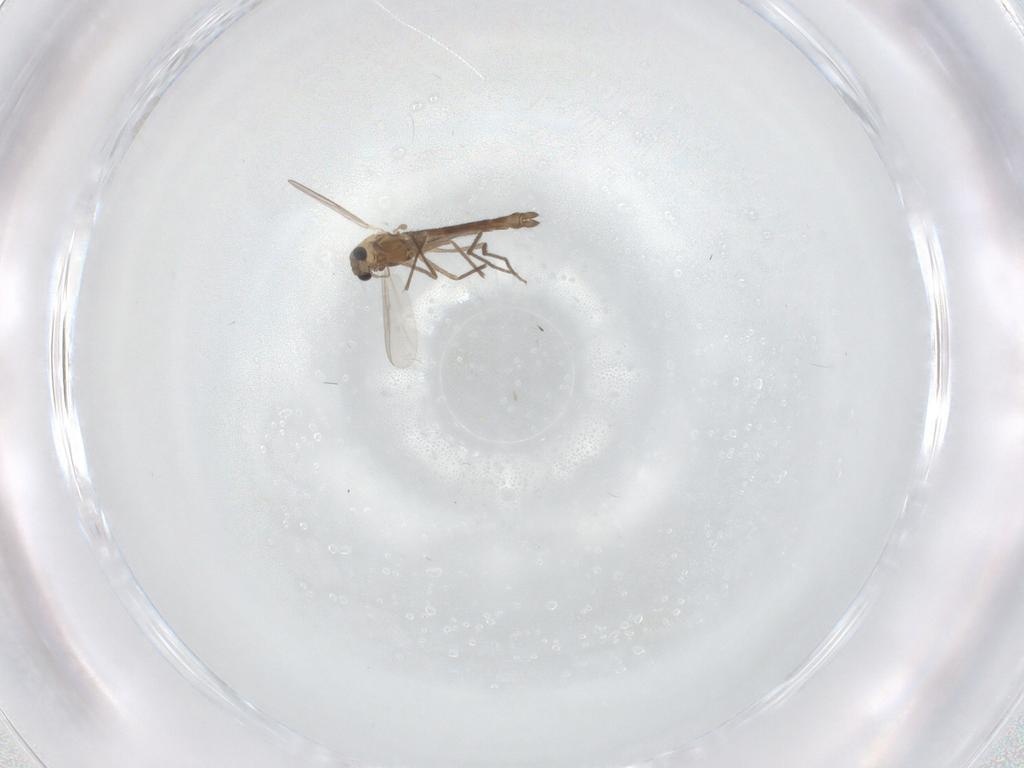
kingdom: Animalia
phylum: Arthropoda
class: Insecta
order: Diptera
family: Chironomidae
